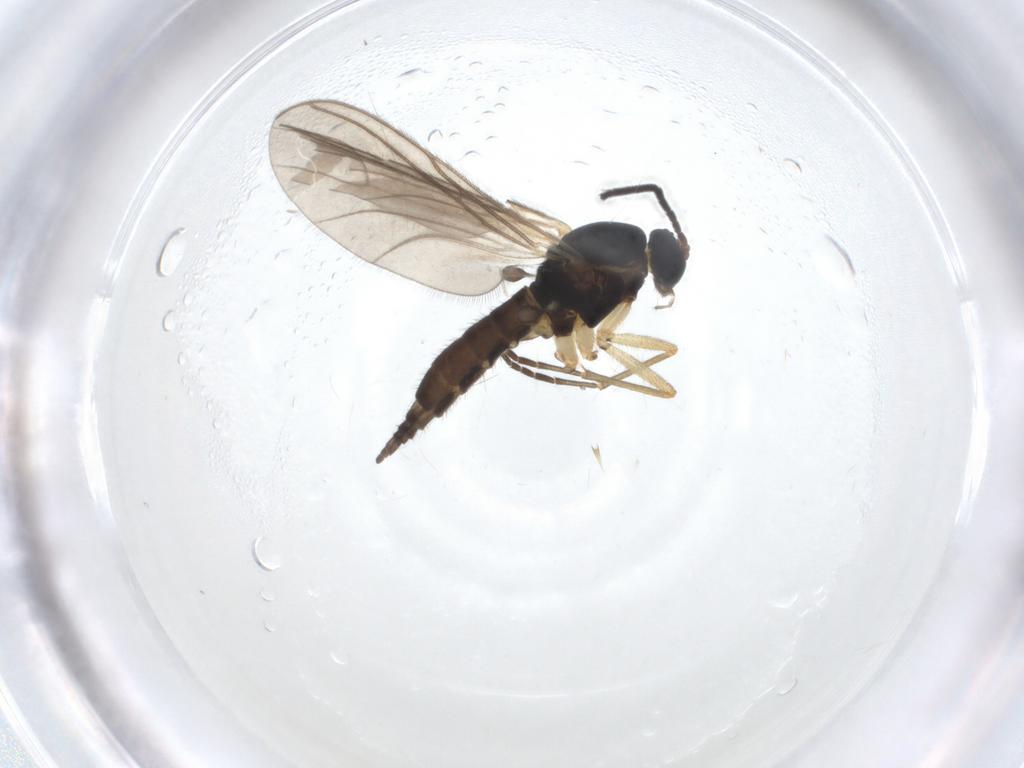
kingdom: Animalia
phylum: Arthropoda
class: Insecta
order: Diptera
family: Sciaridae
